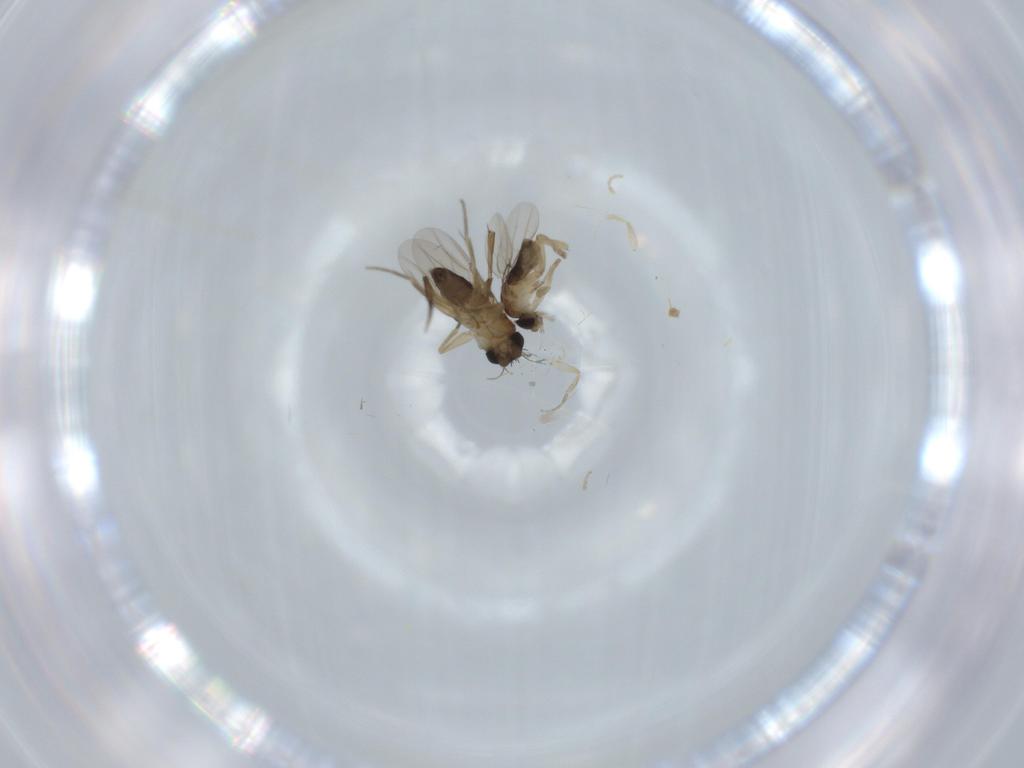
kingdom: Animalia
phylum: Arthropoda
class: Insecta
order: Diptera
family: Phoridae
